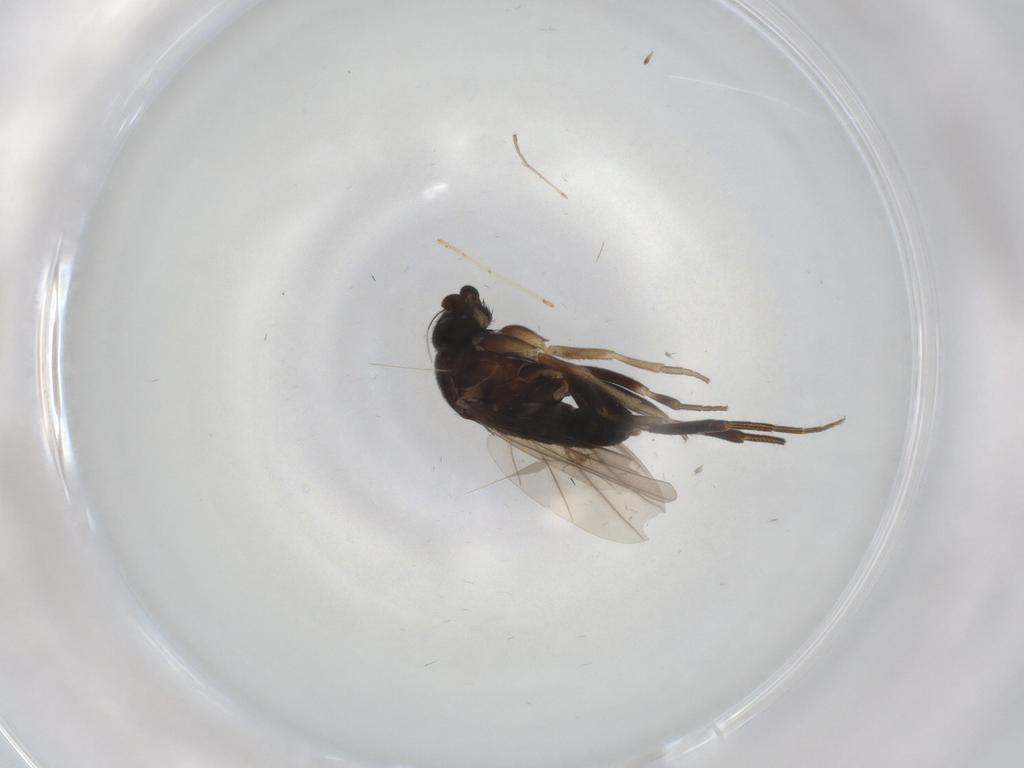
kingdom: Animalia
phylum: Arthropoda
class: Insecta
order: Diptera
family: Cecidomyiidae
